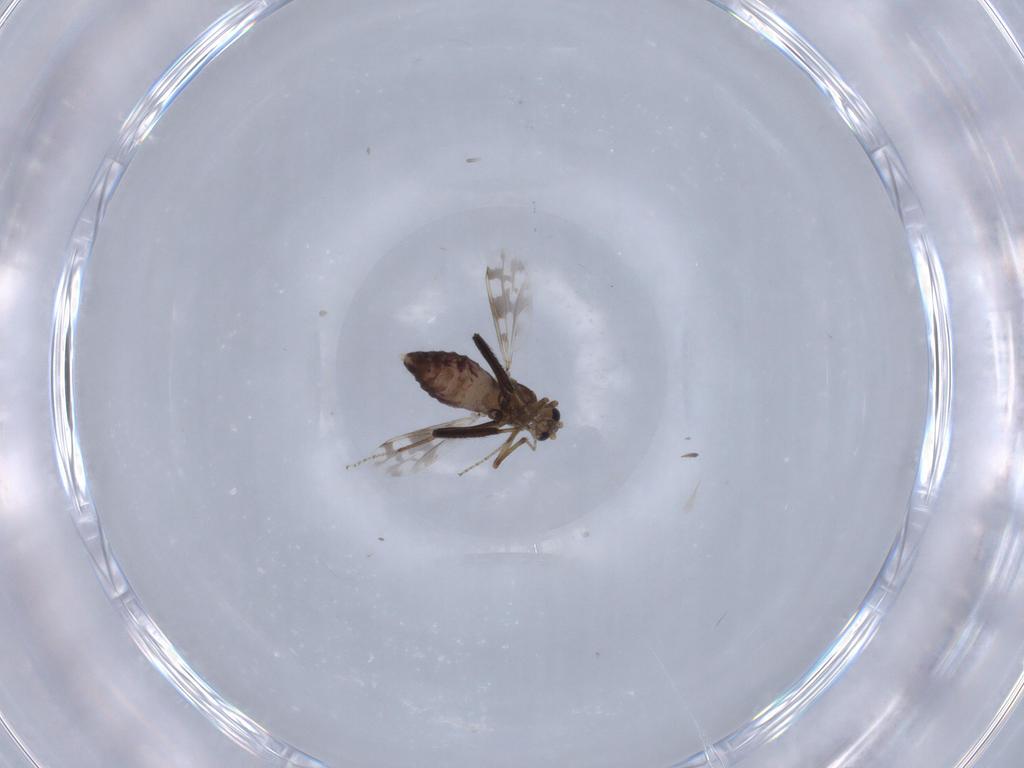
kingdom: Animalia
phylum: Arthropoda
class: Insecta
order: Diptera
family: Ceratopogonidae
